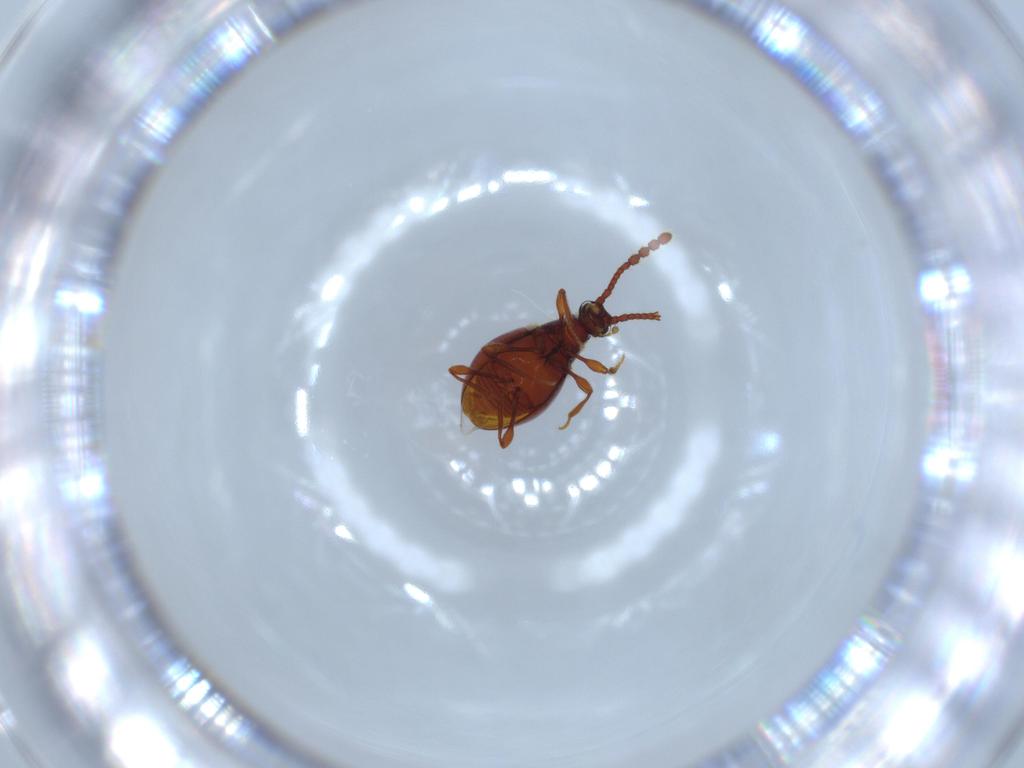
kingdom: Animalia
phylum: Arthropoda
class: Insecta
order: Coleoptera
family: Staphylinidae
